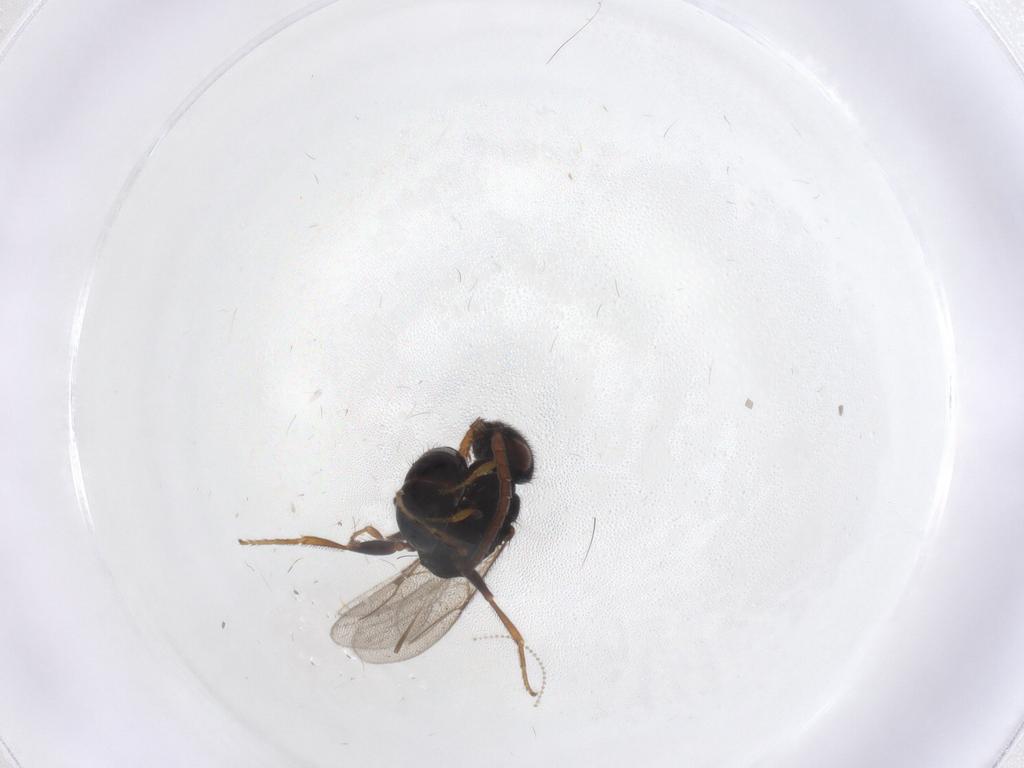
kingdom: Animalia
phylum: Arthropoda
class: Insecta
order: Hymenoptera
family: Bethylidae
